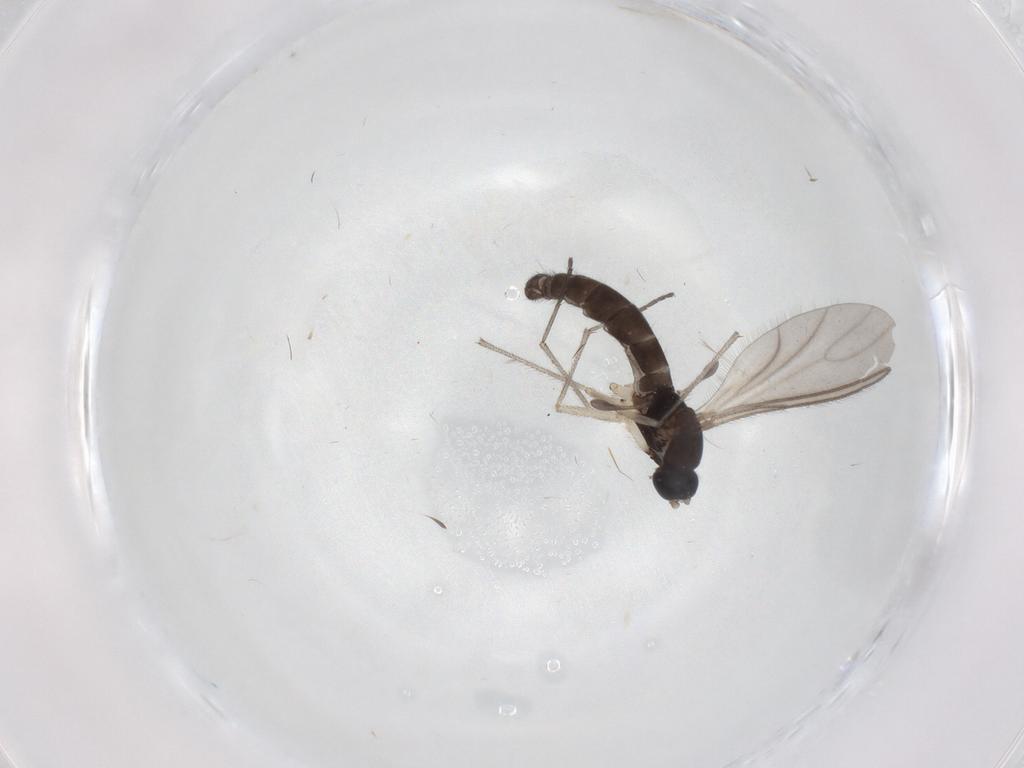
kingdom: Animalia
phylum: Arthropoda
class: Insecta
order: Diptera
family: Sciaridae
